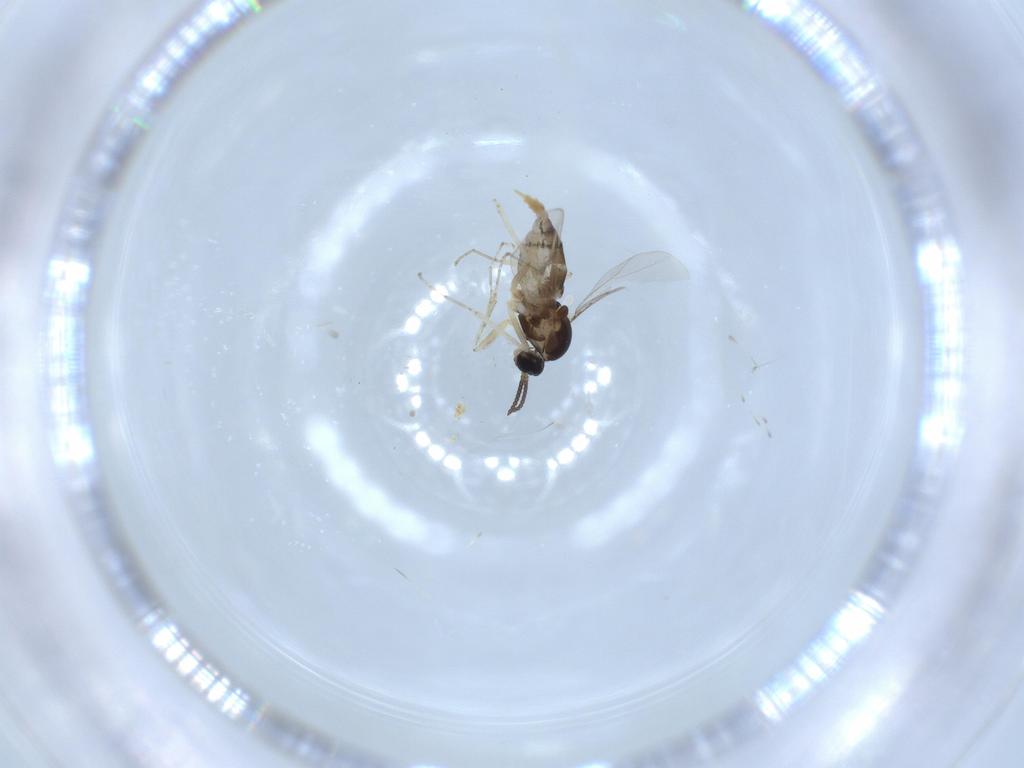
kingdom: Animalia
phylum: Arthropoda
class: Insecta
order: Diptera
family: Cecidomyiidae
